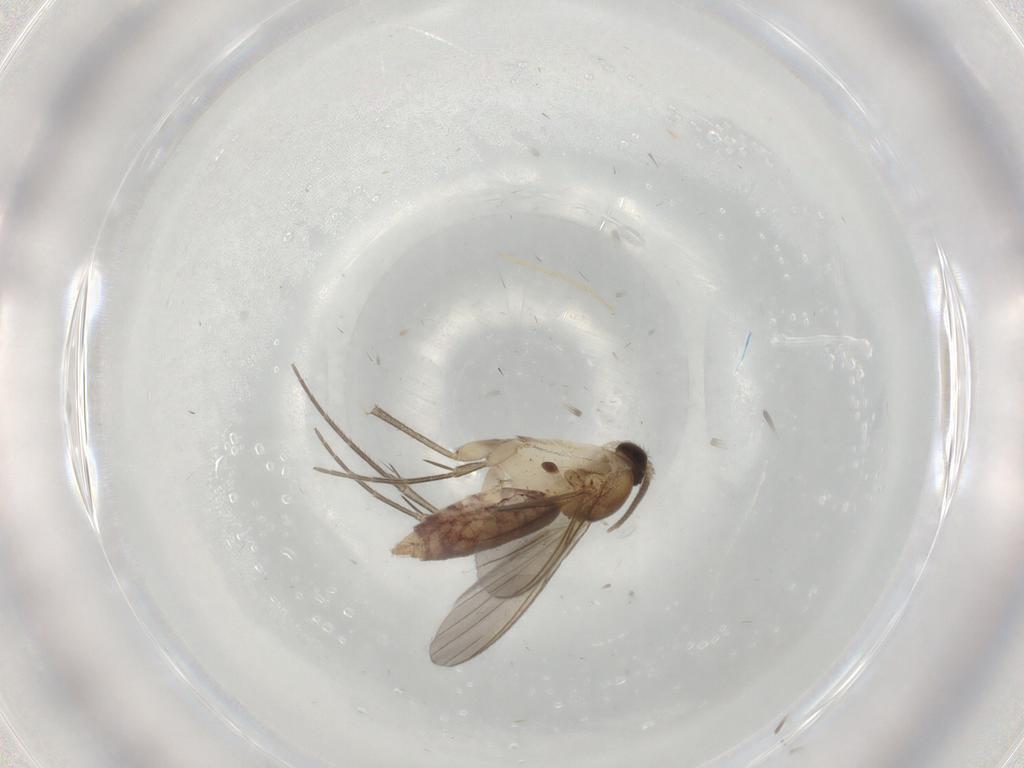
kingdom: Animalia
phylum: Arthropoda
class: Insecta
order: Diptera
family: Mycetophilidae
